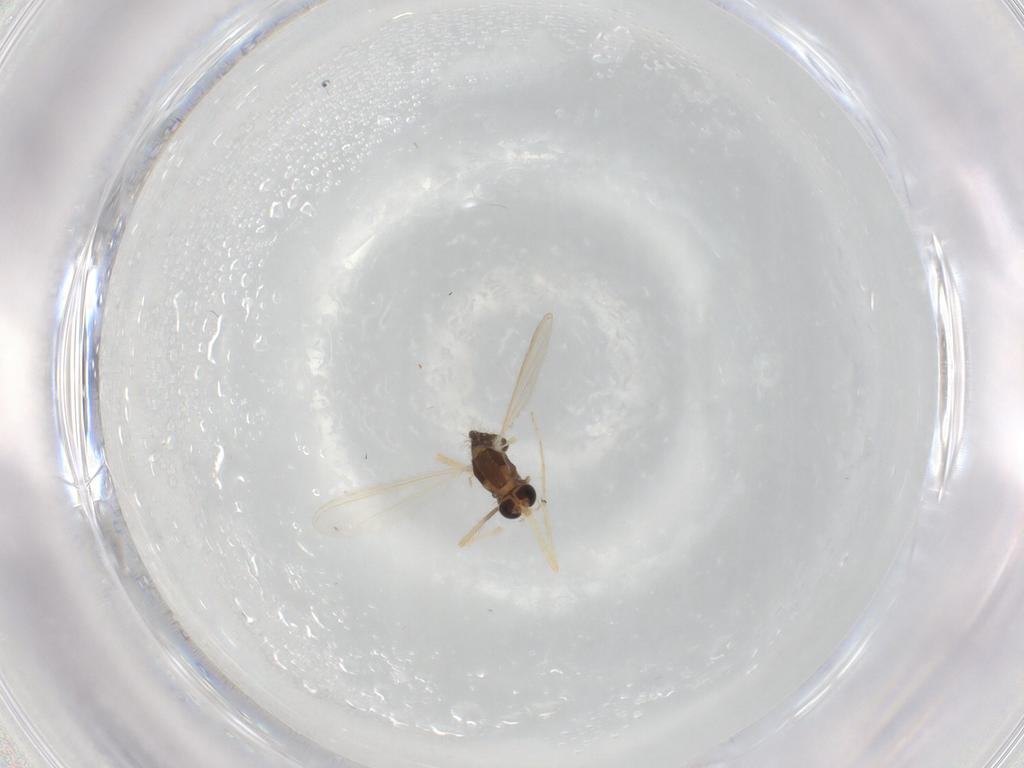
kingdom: Animalia
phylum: Arthropoda
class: Insecta
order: Diptera
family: Chironomidae
